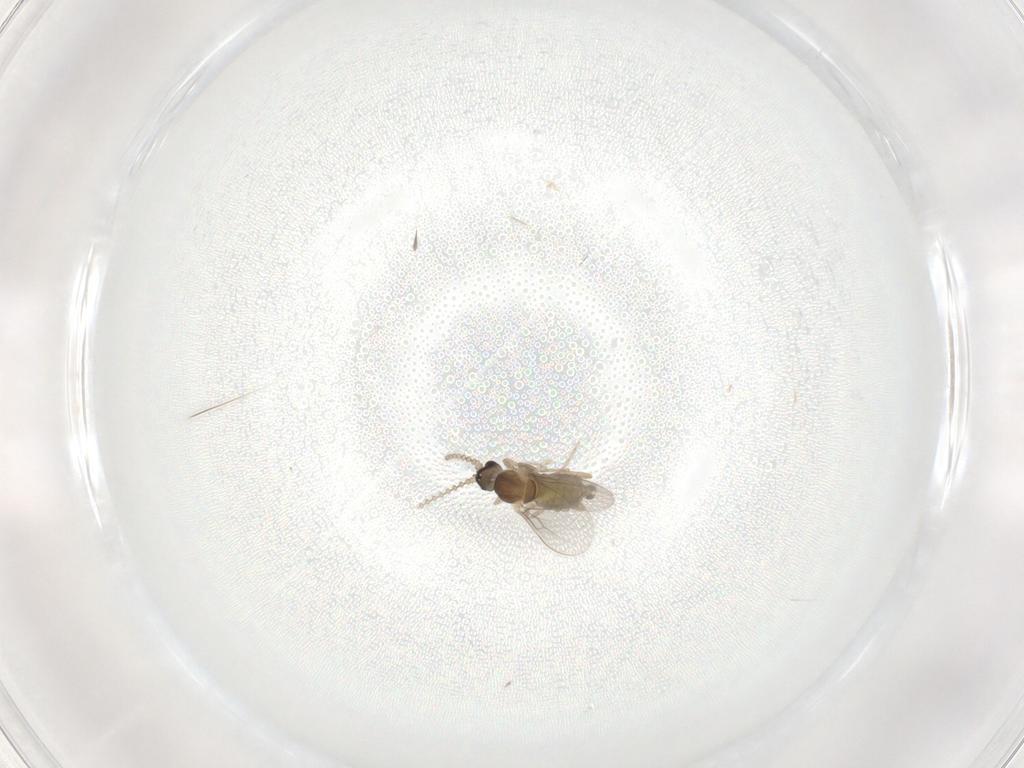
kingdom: Animalia
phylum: Arthropoda
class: Insecta
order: Diptera
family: Cecidomyiidae
